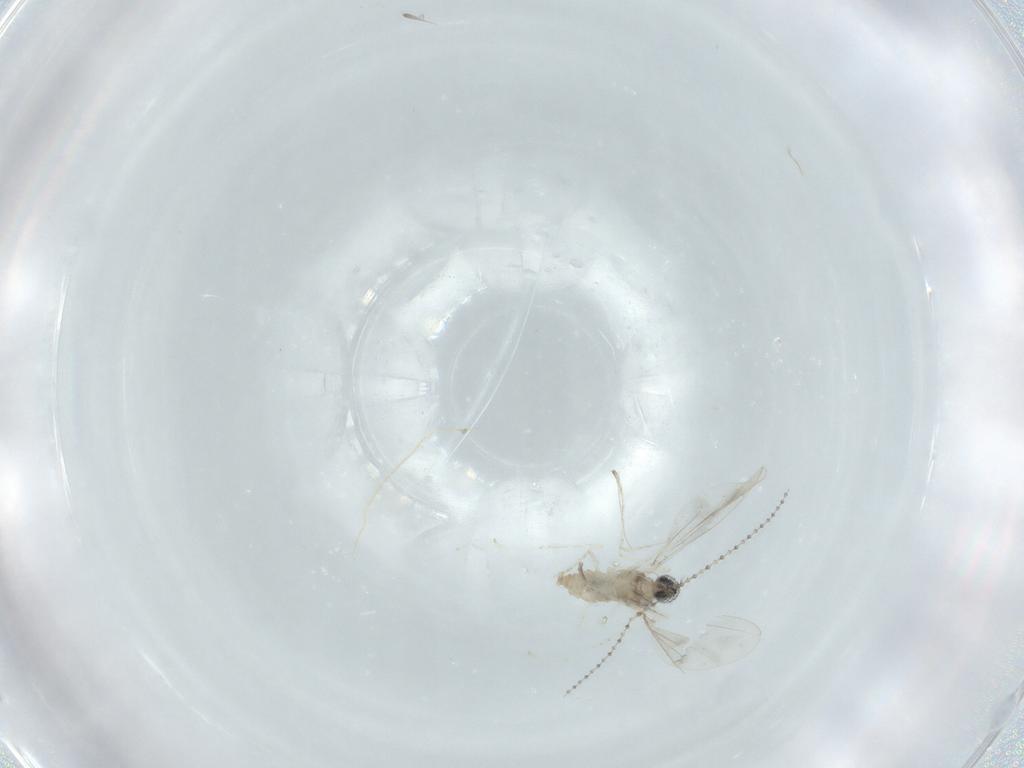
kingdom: Animalia
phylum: Arthropoda
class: Insecta
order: Diptera
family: Cecidomyiidae
